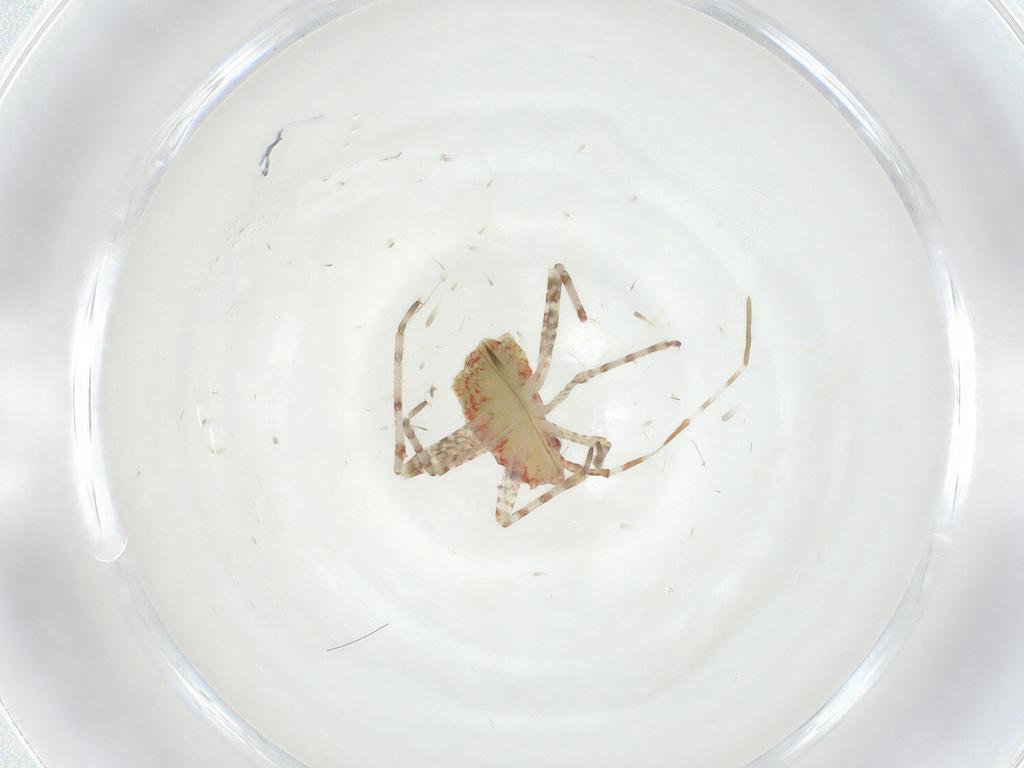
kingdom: Animalia
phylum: Arthropoda
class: Insecta
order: Hemiptera
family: Miridae
